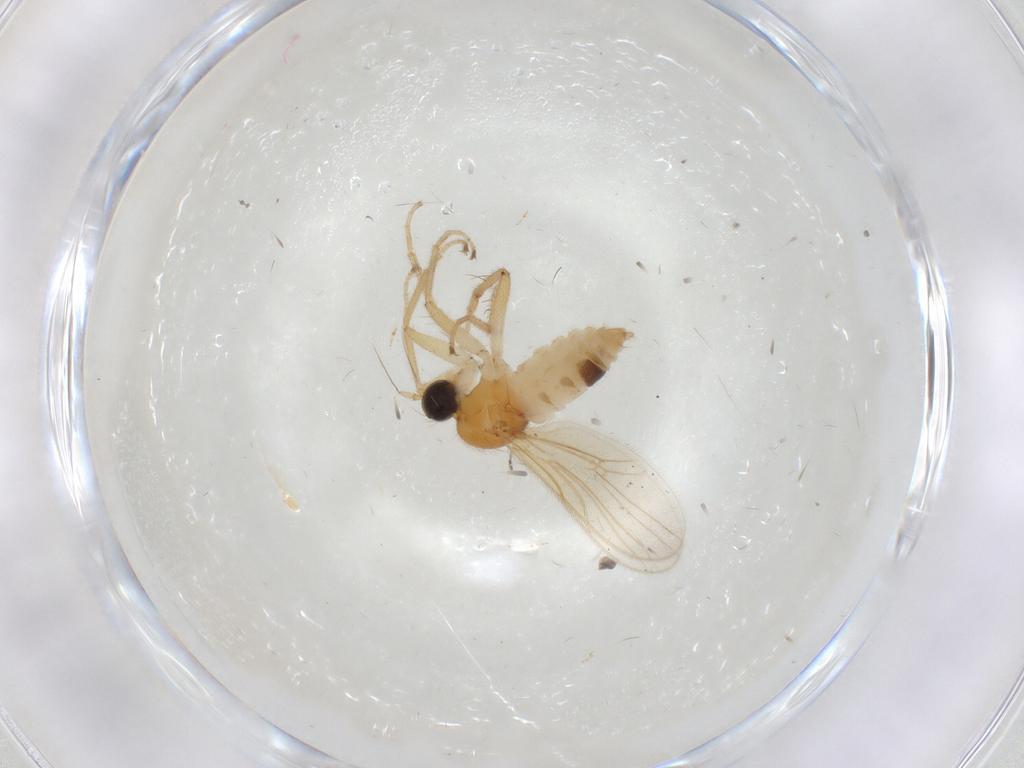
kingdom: Animalia
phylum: Arthropoda
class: Insecta
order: Diptera
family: Hybotidae
